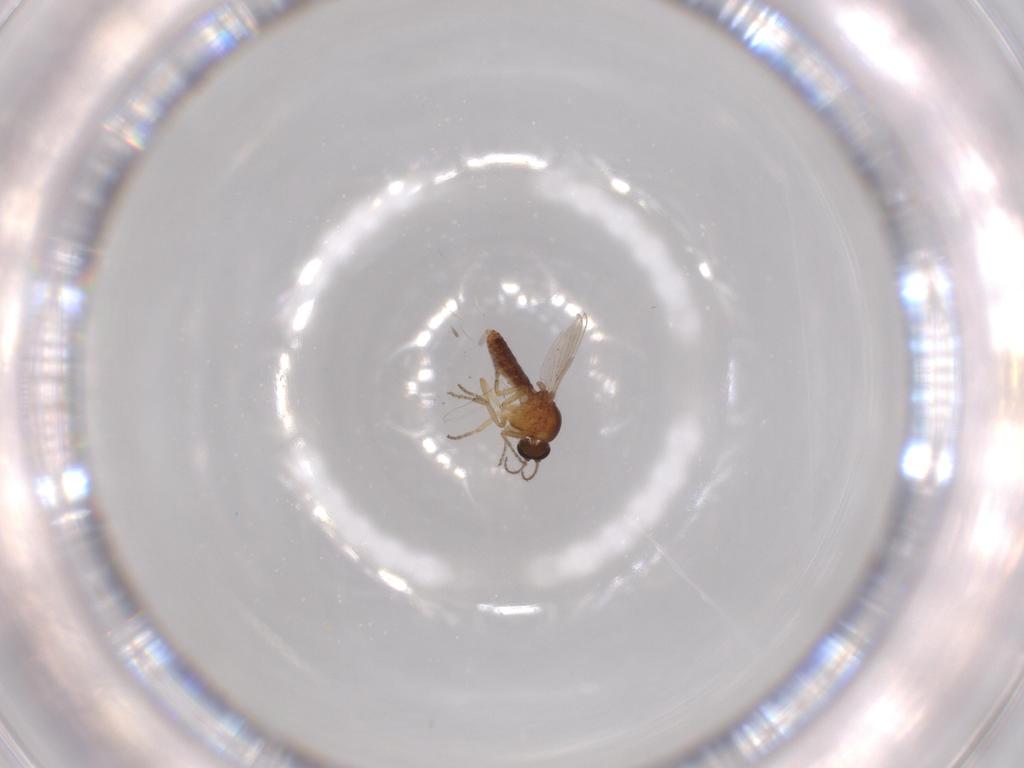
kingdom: Animalia
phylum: Arthropoda
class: Insecta
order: Diptera
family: Ceratopogonidae
